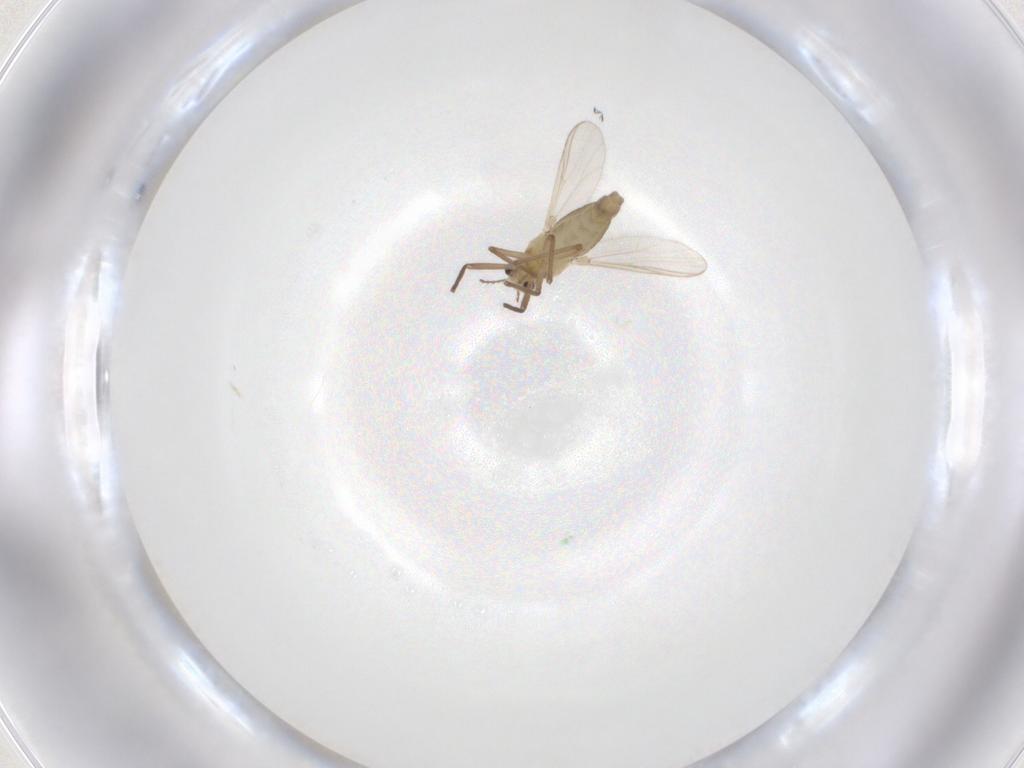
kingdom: Animalia
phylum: Arthropoda
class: Insecta
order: Diptera
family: Chironomidae
